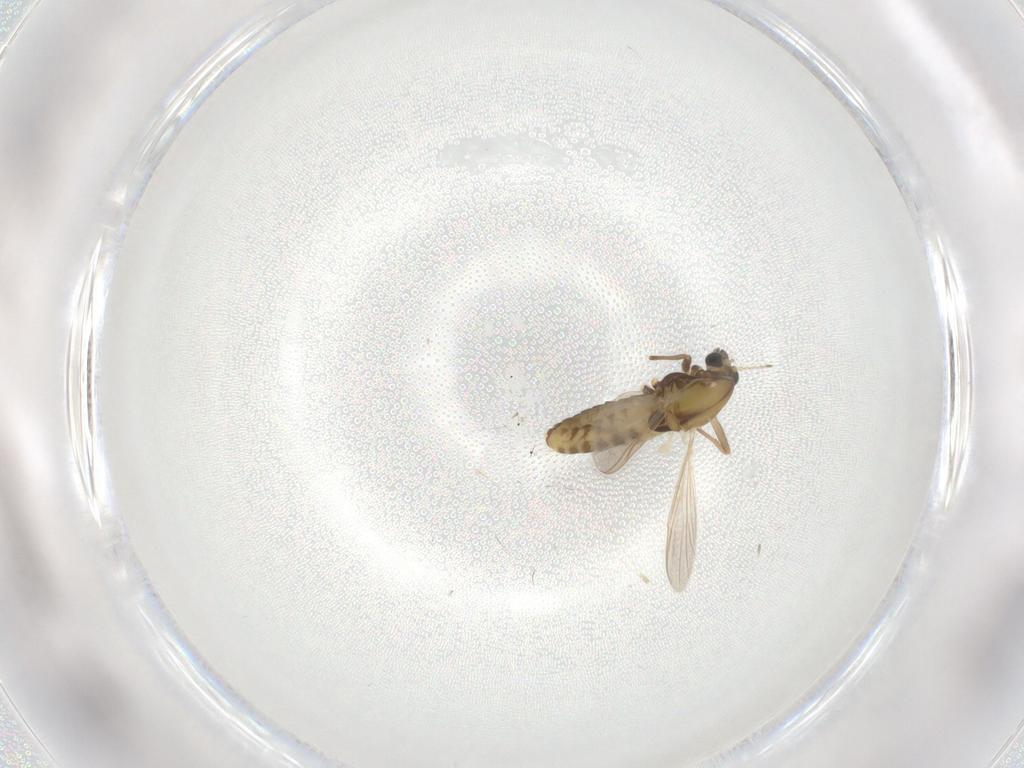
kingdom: Animalia
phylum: Arthropoda
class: Insecta
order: Diptera
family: Chironomidae
